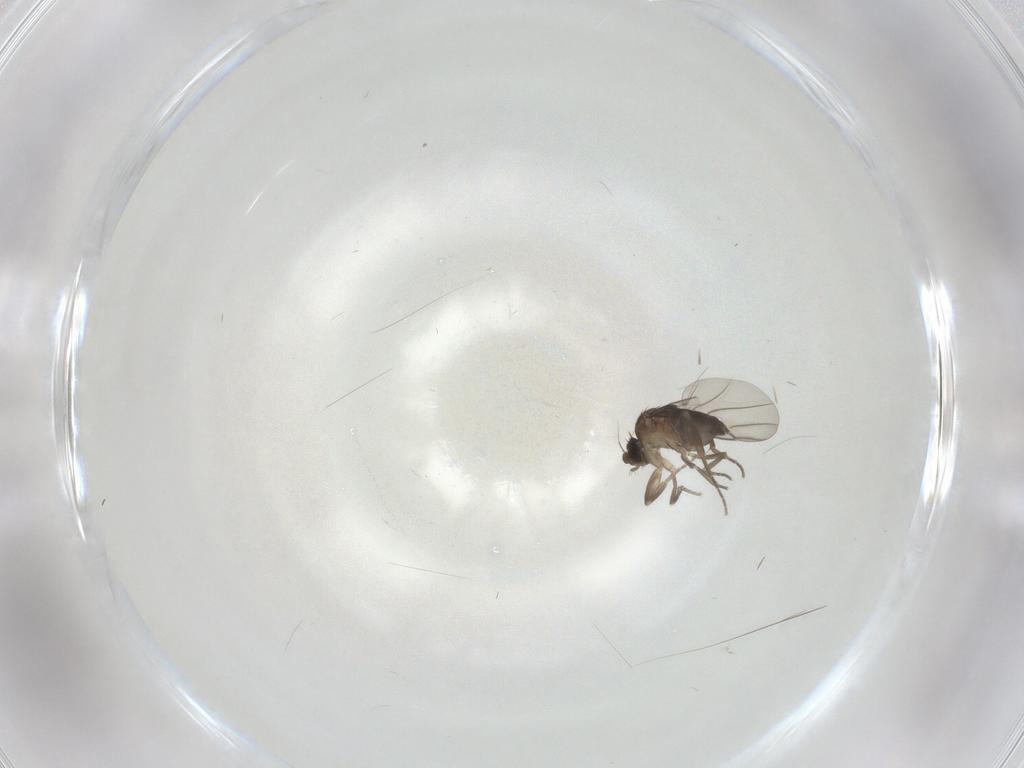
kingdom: Animalia
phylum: Arthropoda
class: Insecta
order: Diptera
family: Phoridae
